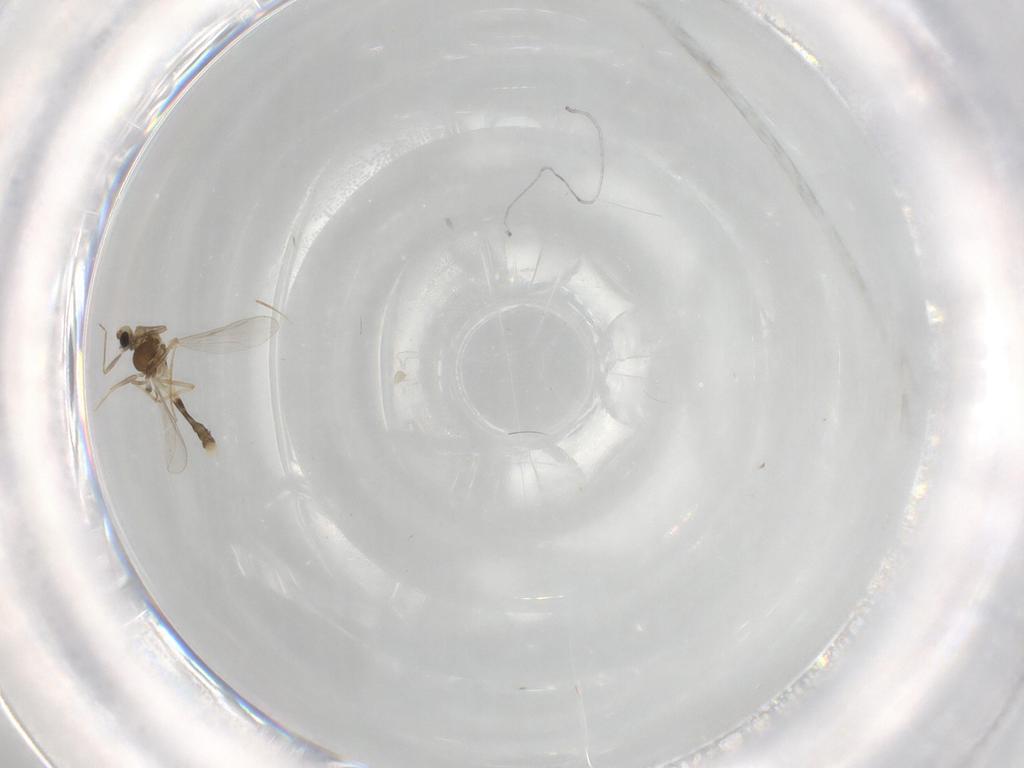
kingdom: Animalia
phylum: Arthropoda
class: Insecta
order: Diptera
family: Chironomidae
